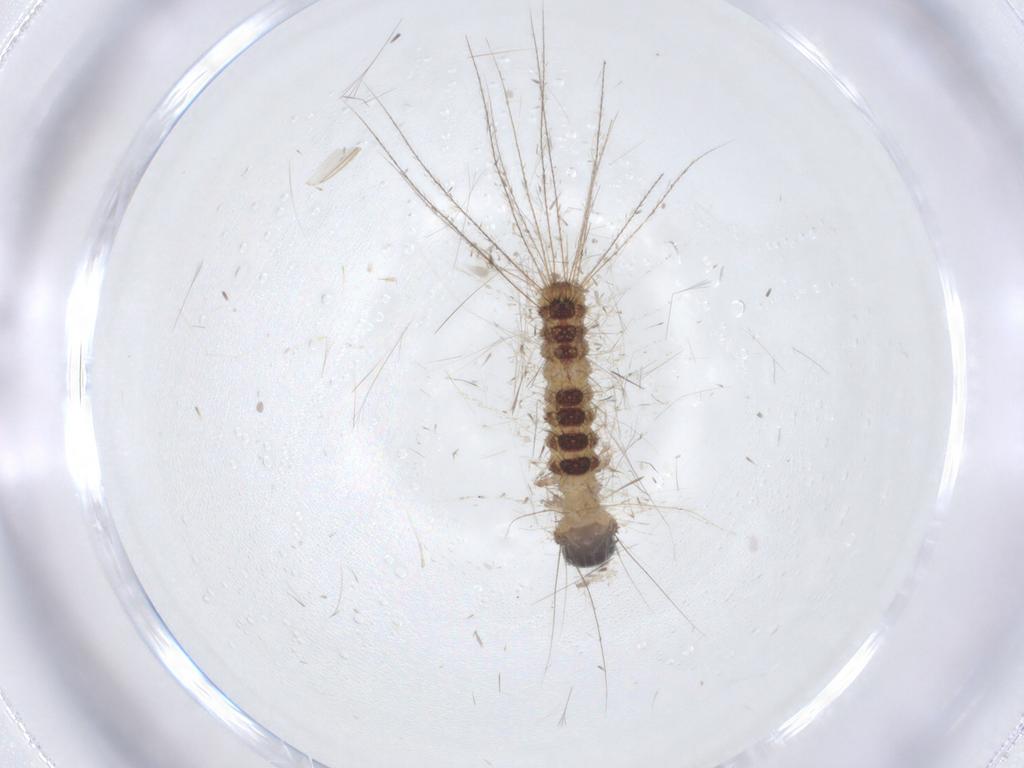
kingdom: Animalia
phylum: Arthropoda
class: Insecta
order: Lepidoptera
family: Erebidae
